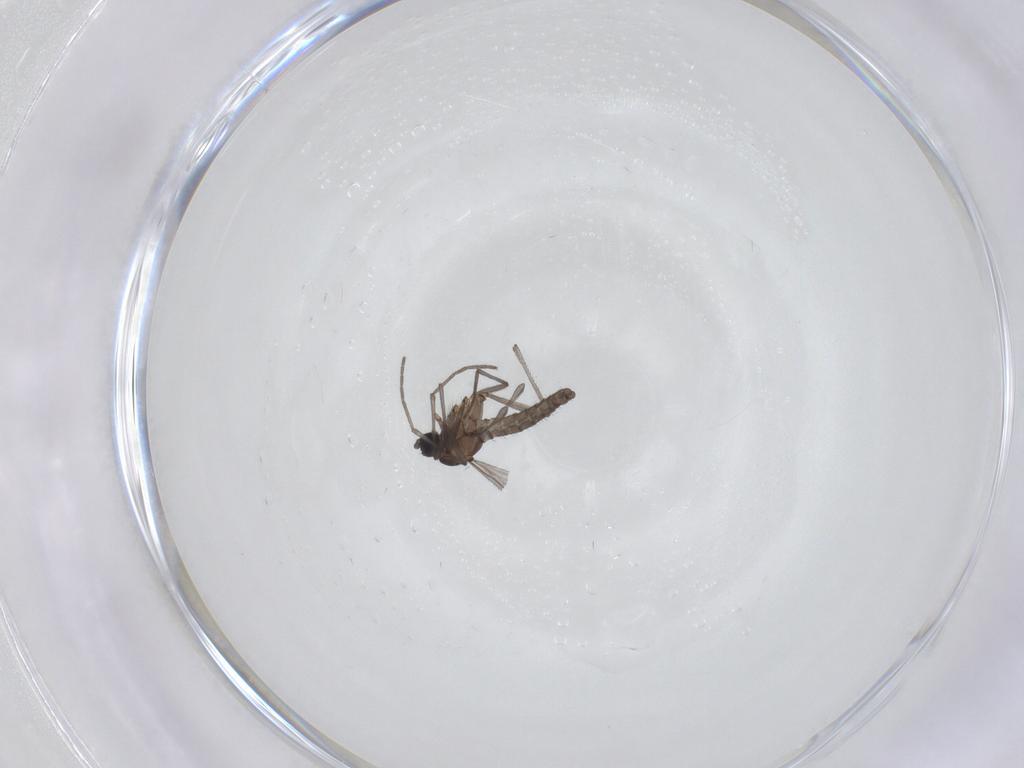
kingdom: Animalia
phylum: Arthropoda
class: Insecta
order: Diptera
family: Sciaridae
